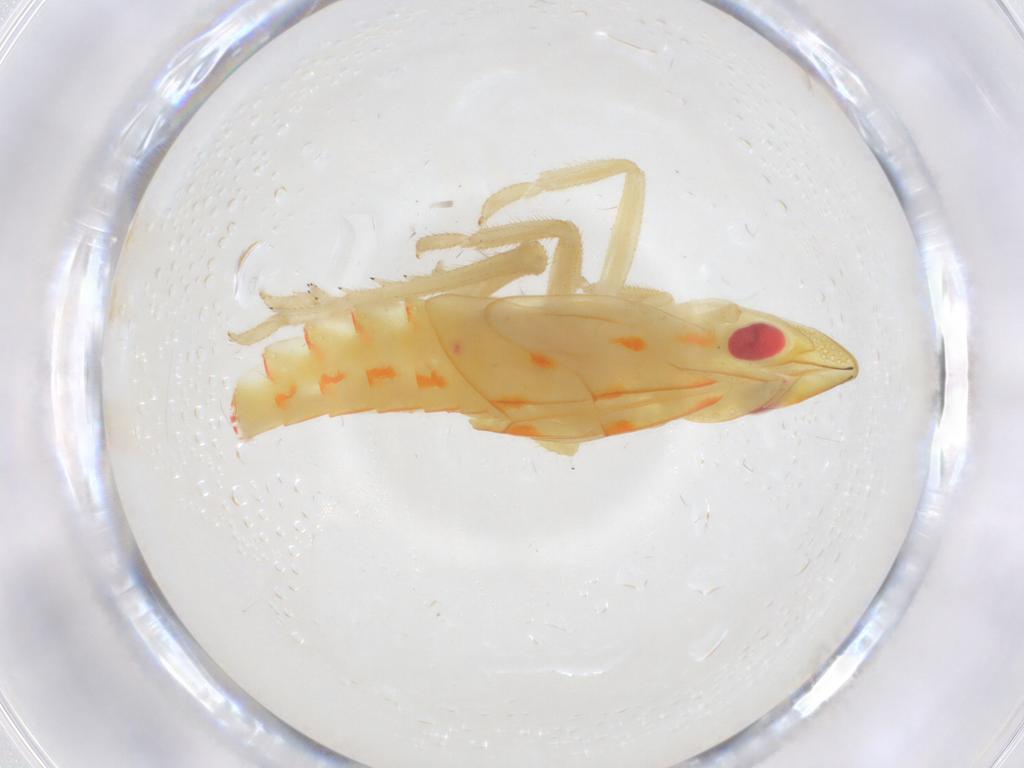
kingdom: Animalia
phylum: Arthropoda
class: Insecta
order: Hemiptera
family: Tropiduchidae
